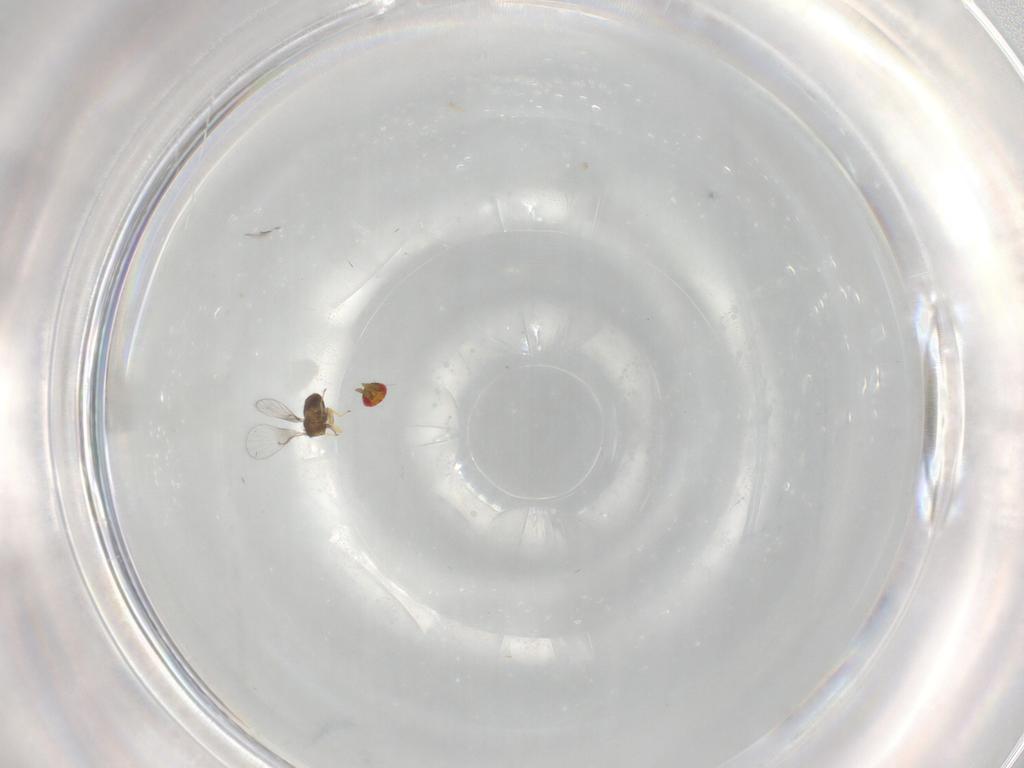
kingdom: Animalia
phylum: Arthropoda
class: Insecta
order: Hymenoptera
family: Trichogrammatidae
